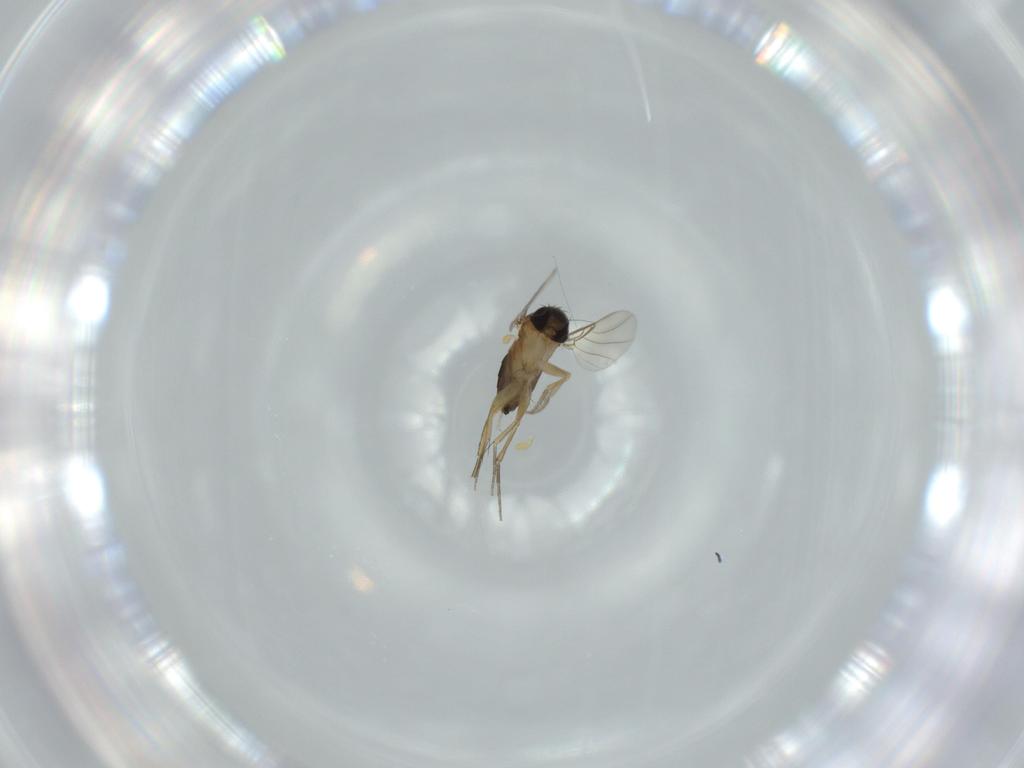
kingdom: Animalia
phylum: Arthropoda
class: Insecta
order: Diptera
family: Phoridae
